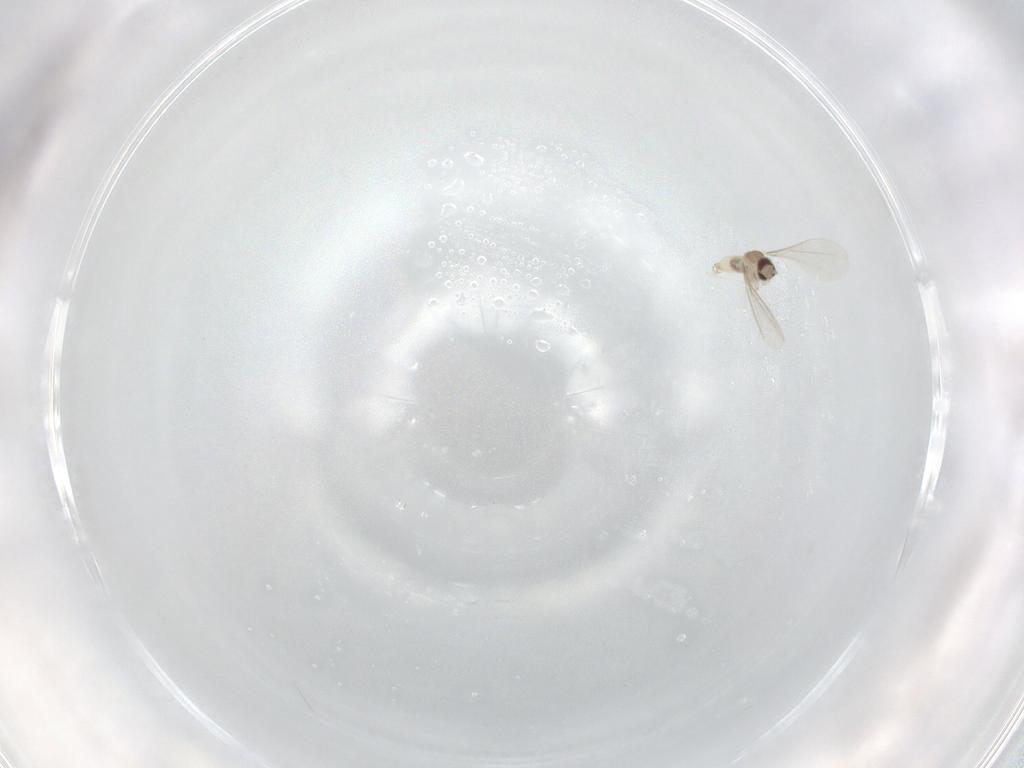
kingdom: Animalia
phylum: Arthropoda
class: Insecta
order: Diptera
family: Cecidomyiidae
